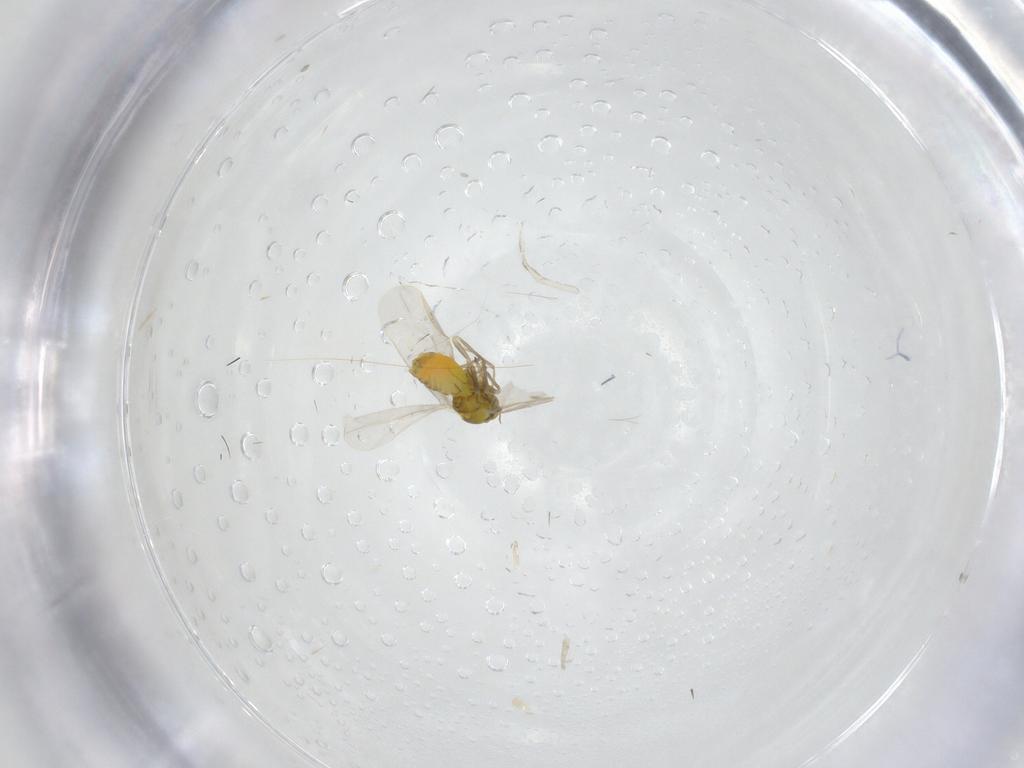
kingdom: Animalia
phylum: Arthropoda
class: Insecta
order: Hemiptera
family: Aleyrodidae
